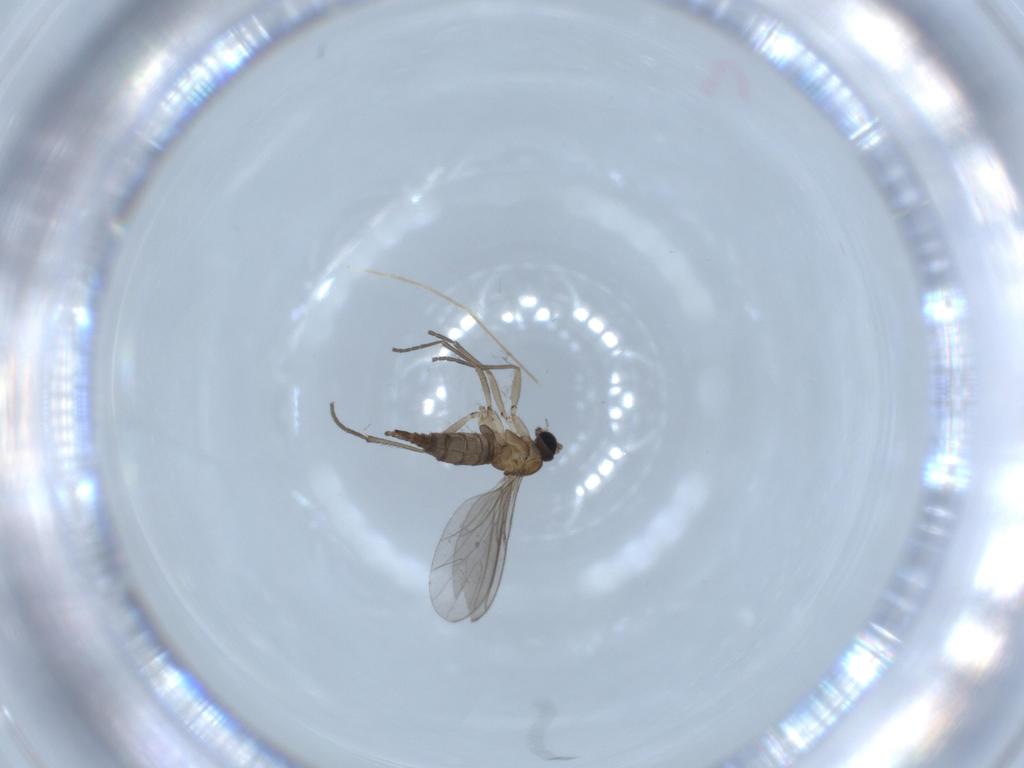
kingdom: Animalia
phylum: Arthropoda
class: Insecta
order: Diptera
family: Sciaridae
